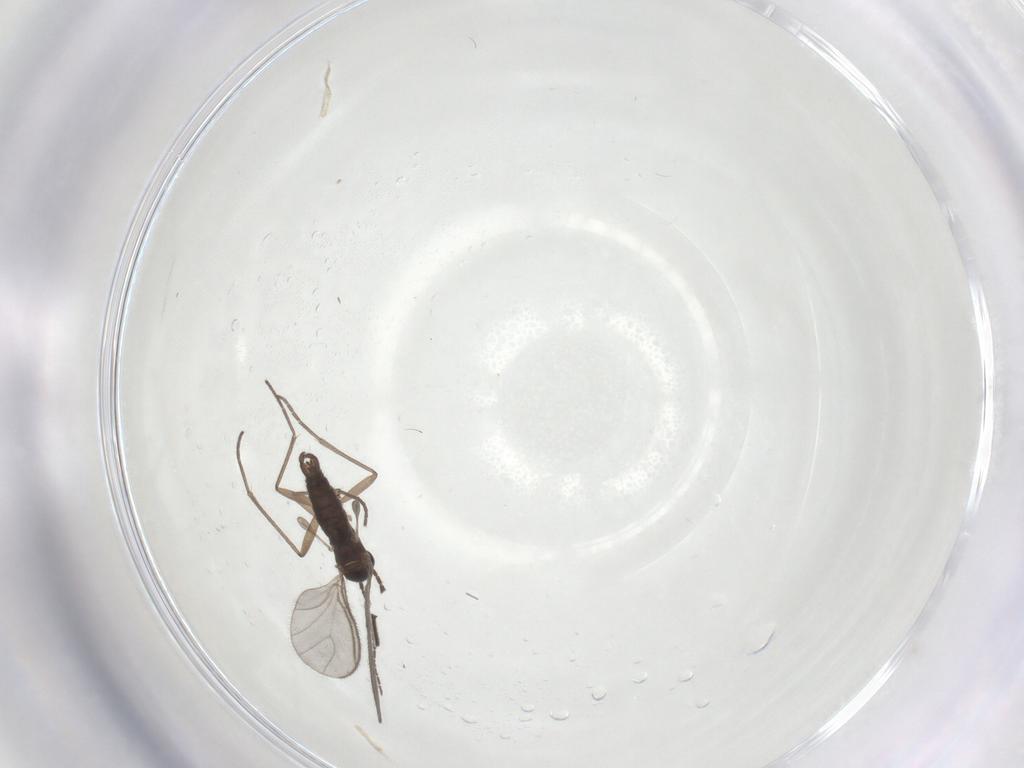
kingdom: Animalia
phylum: Arthropoda
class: Insecta
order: Diptera
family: Sciaridae
